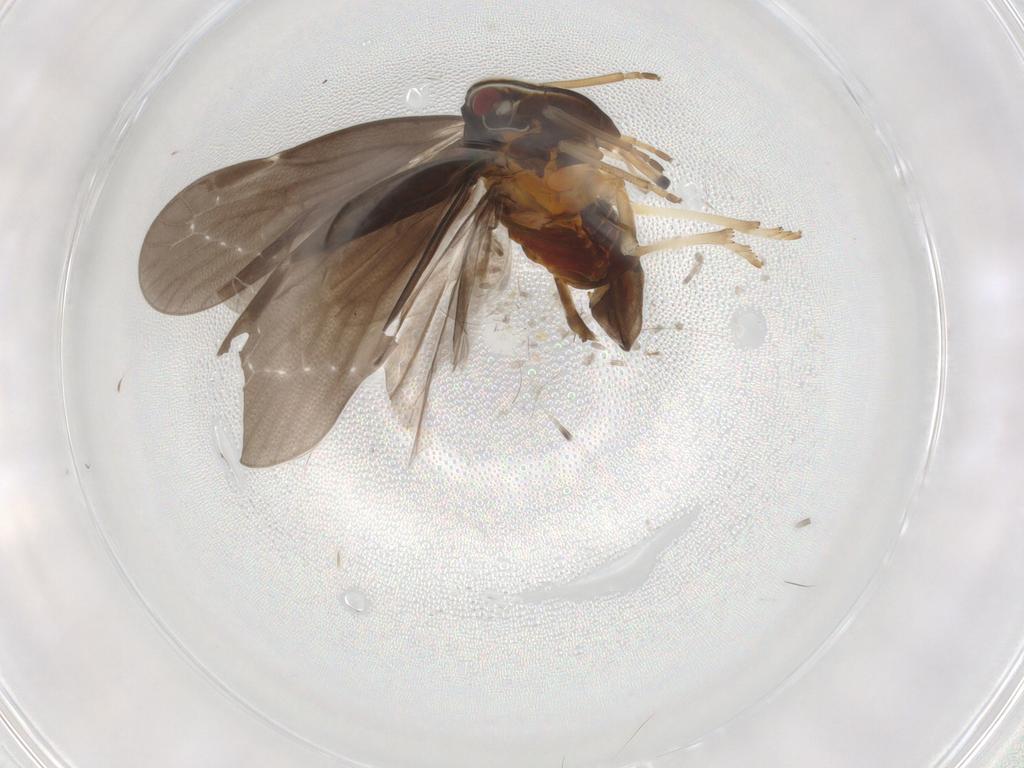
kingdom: Animalia
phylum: Arthropoda
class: Insecta
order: Hemiptera
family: Derbidae
